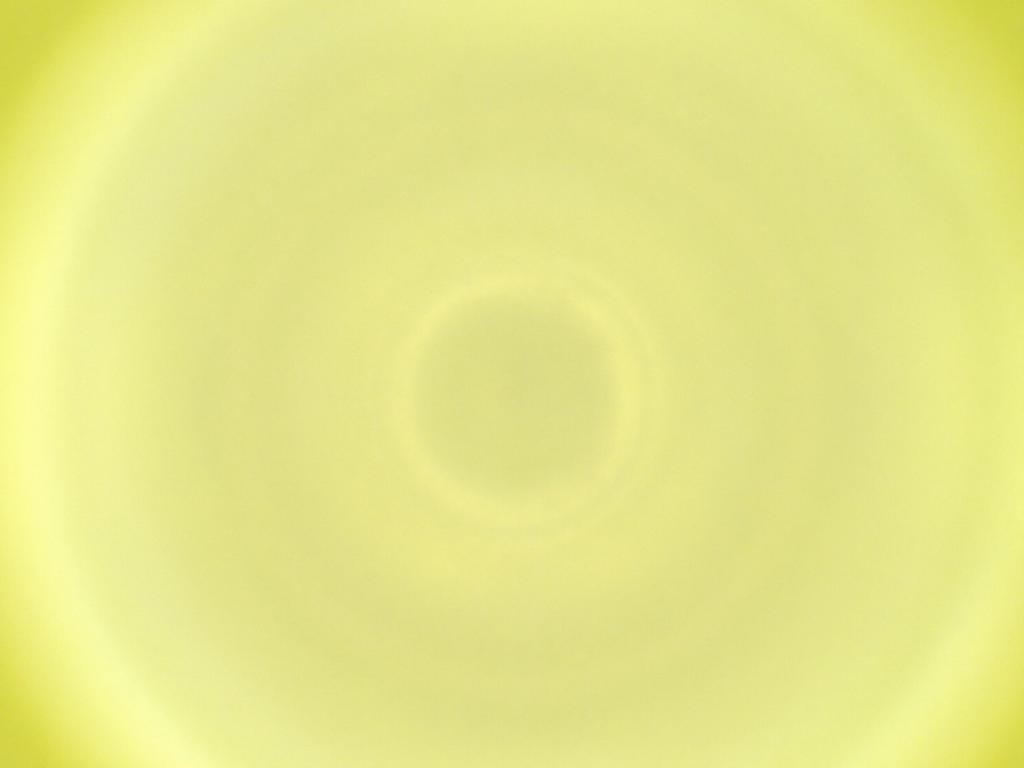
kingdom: Animalia
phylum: Arthropoda
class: Insecta
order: Diptera
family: Cecidomyiidae
